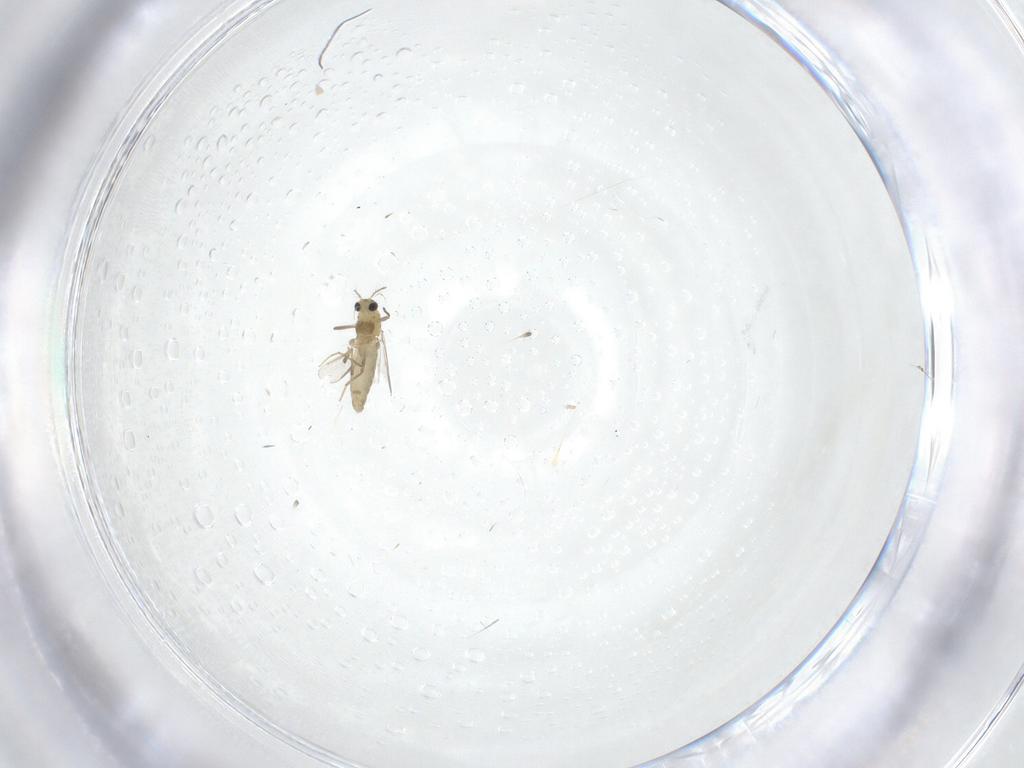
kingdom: Animalia
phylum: Arthropoda
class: Insecta
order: Diptera
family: Chironomidae
